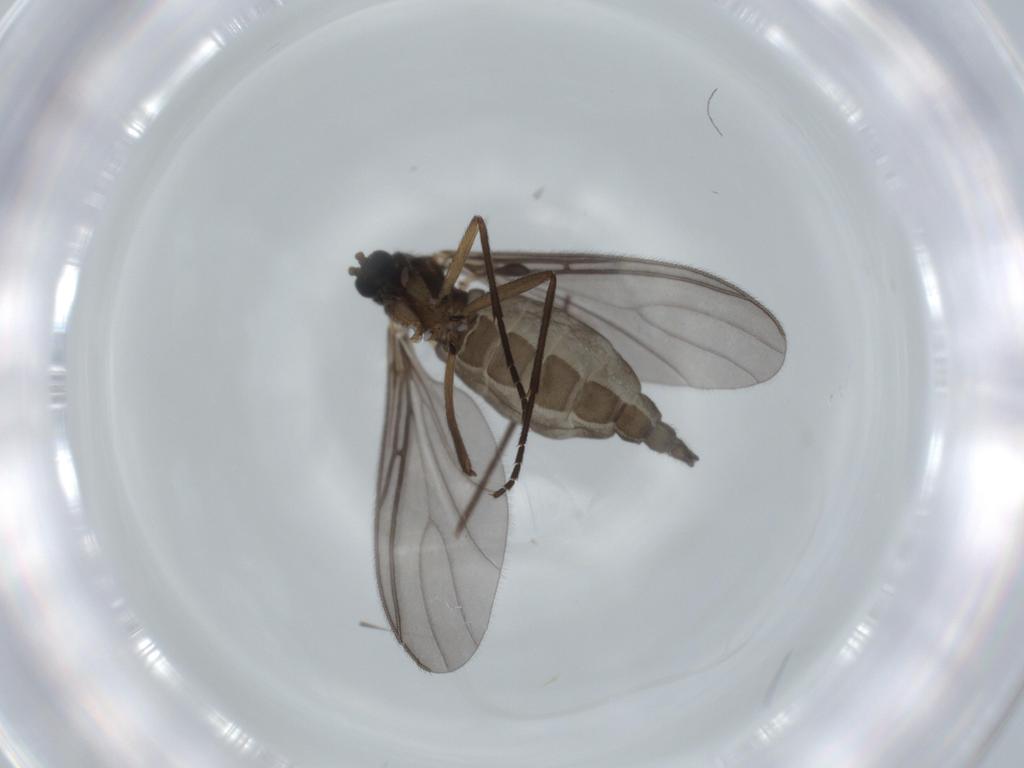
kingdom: Animalia
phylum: Arthropoda
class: Insecta
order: Diptera
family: Sciaridae
